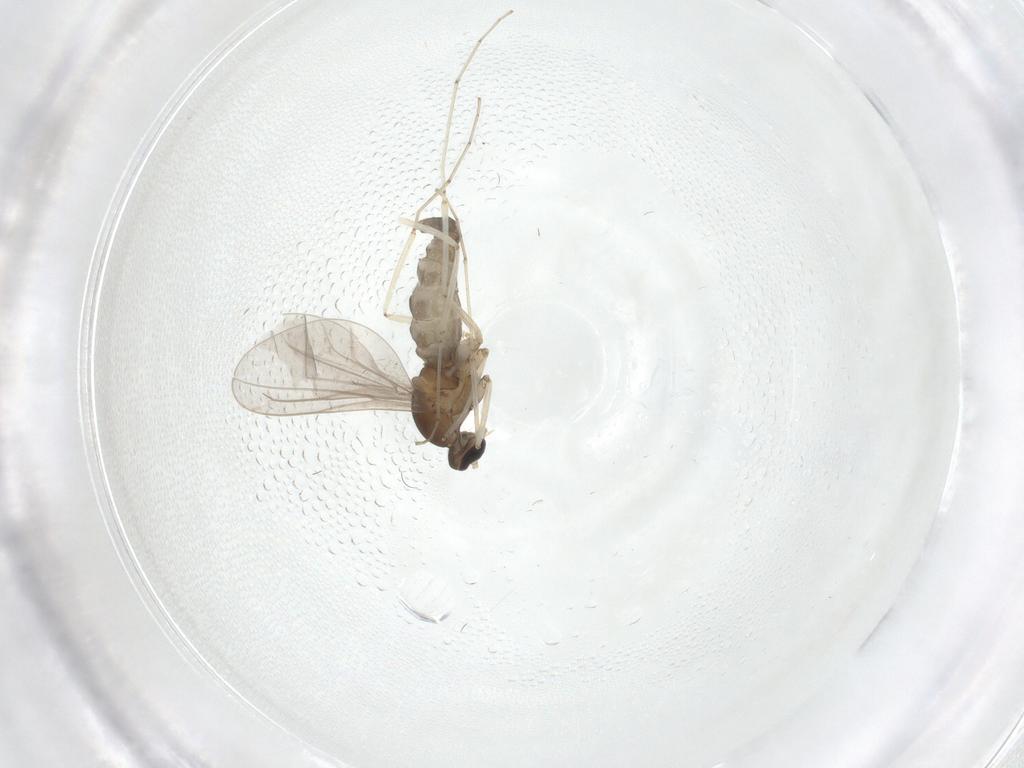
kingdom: Animalia
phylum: Arthropoda
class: Insecta
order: Diptera
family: Cecidomyiidae
